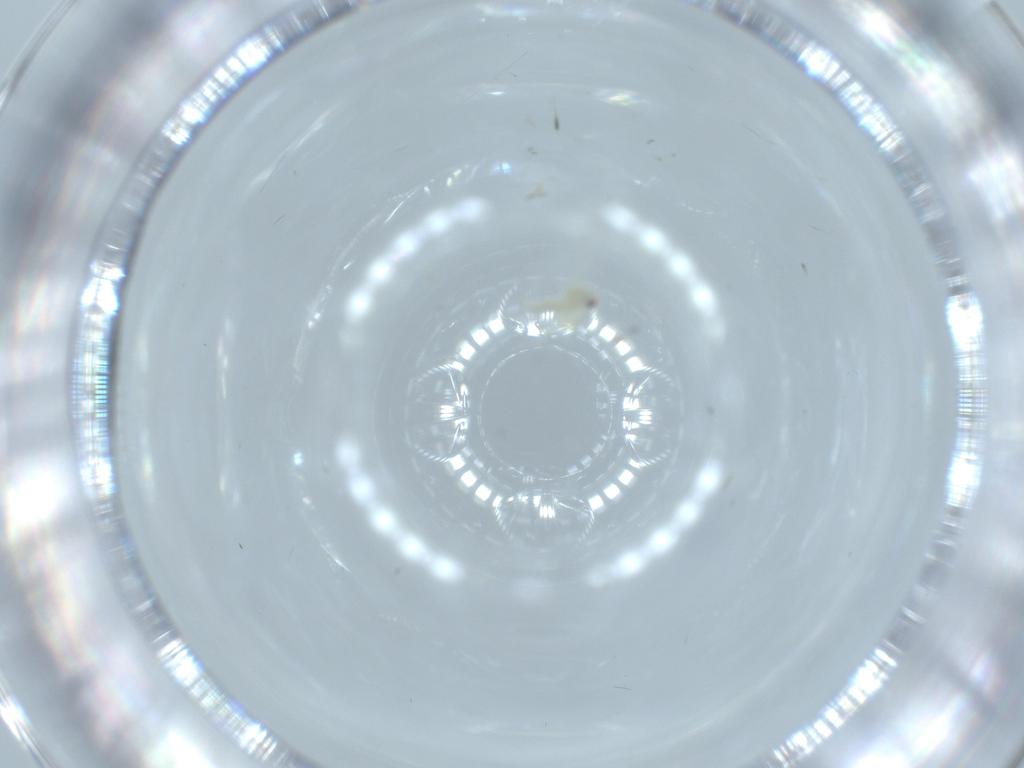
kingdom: Animalia
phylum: Arthropoda
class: Insecta
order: Hemiptera
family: Aleyrodidae
